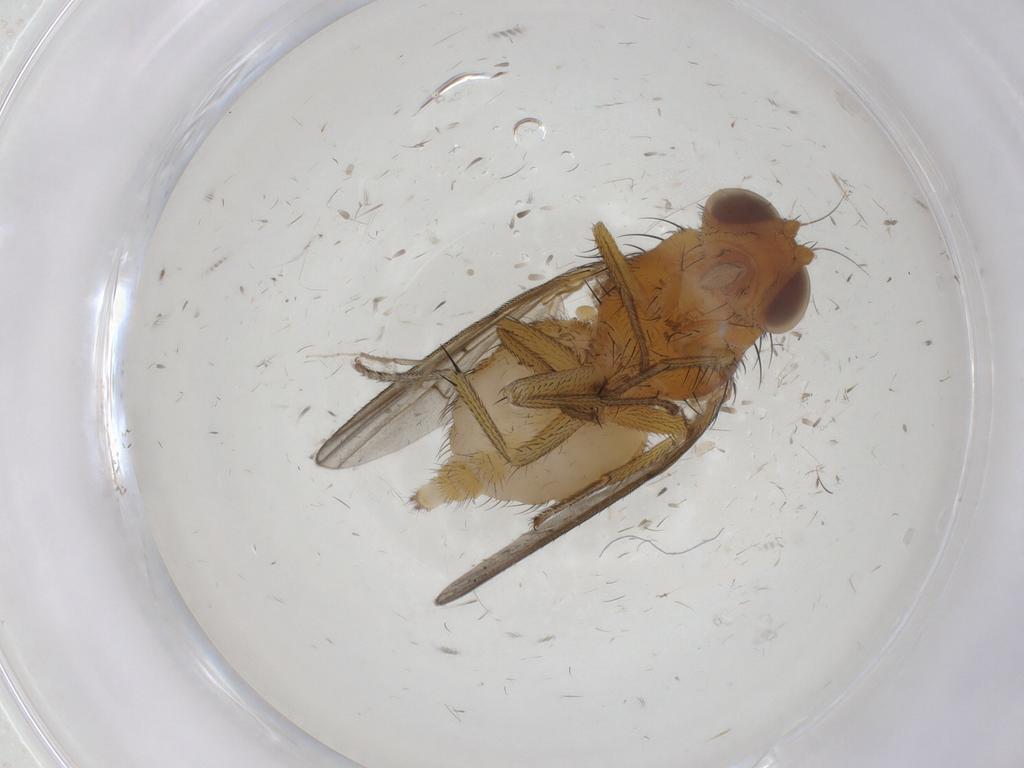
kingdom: Animalia
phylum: Arthropoda
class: Insecta
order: Diptera
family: Psychodidae
